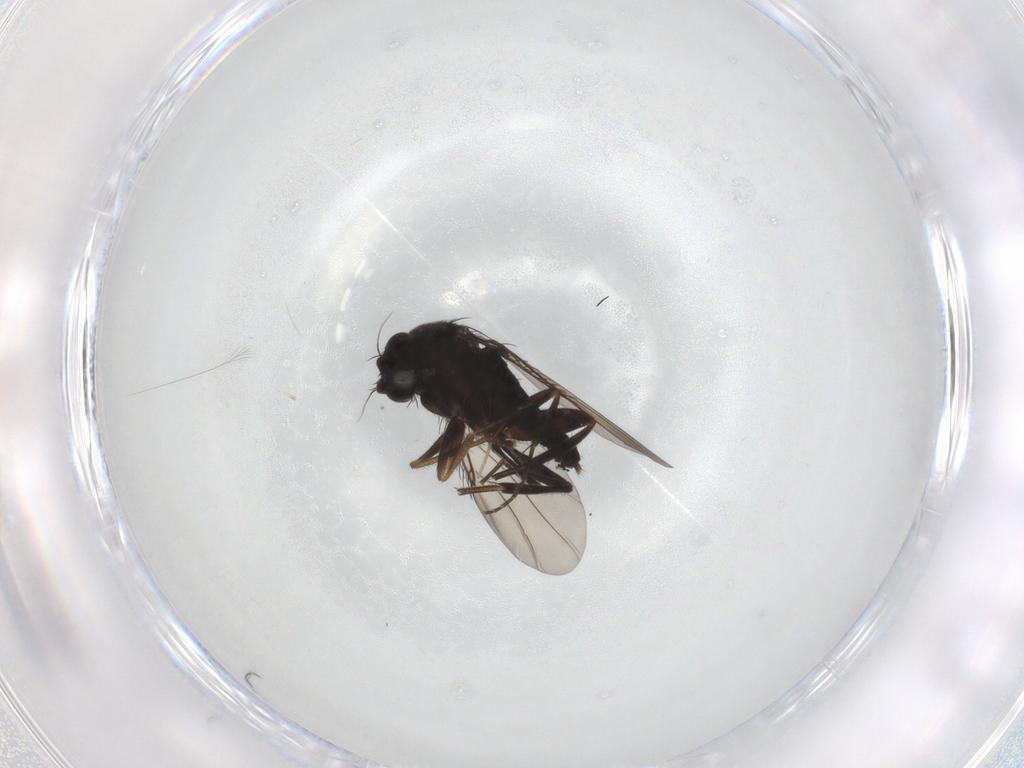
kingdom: Animalia
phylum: Arthropoda
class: Insecta
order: Diptera
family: Phoridae
